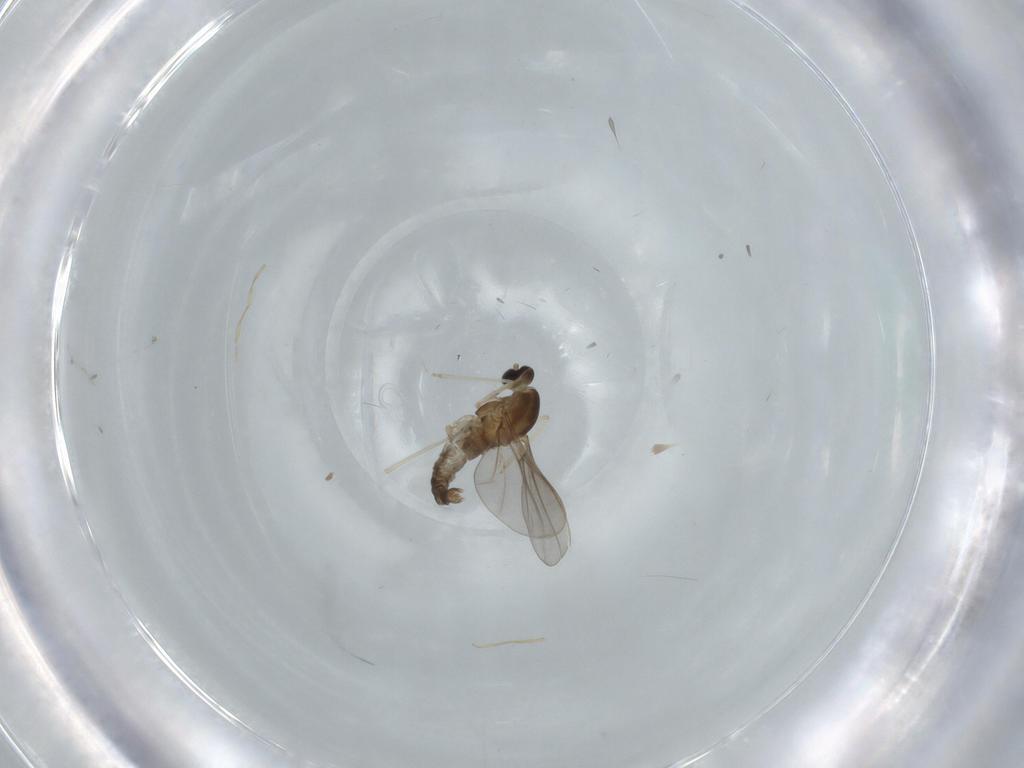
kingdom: Animalia
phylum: Arthropoda
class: Insecta
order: Diptera
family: Cecidomyiidae
